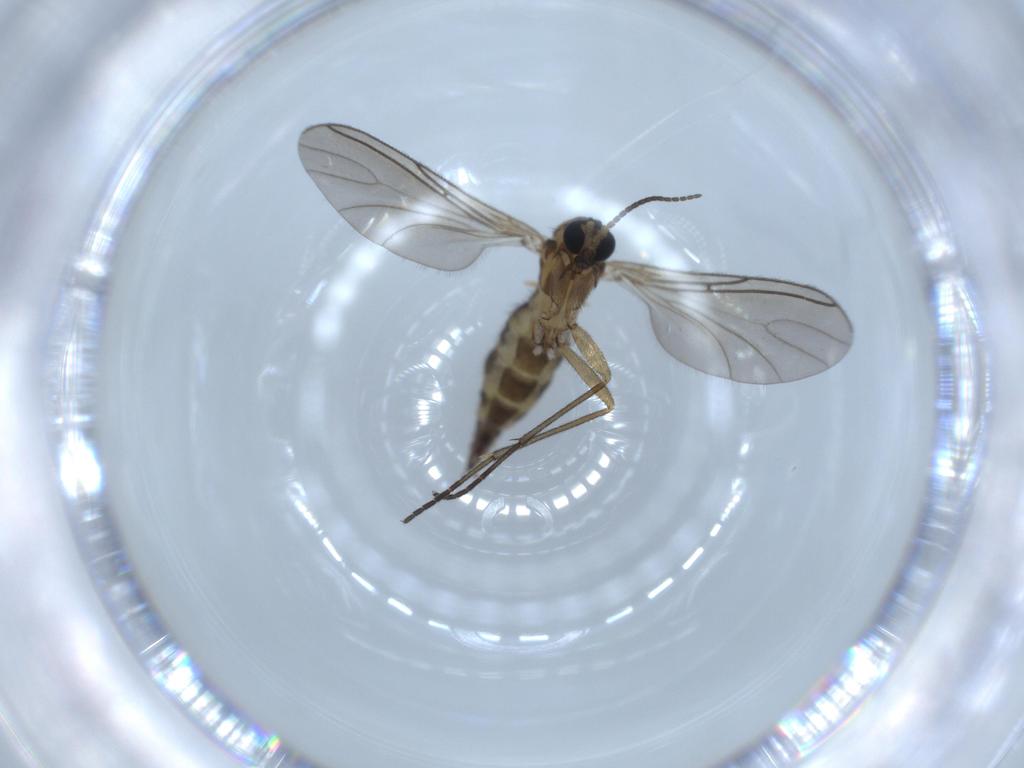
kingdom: Animalia
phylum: Arthropoda
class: Insecta
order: Diptera
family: Sciaridae
